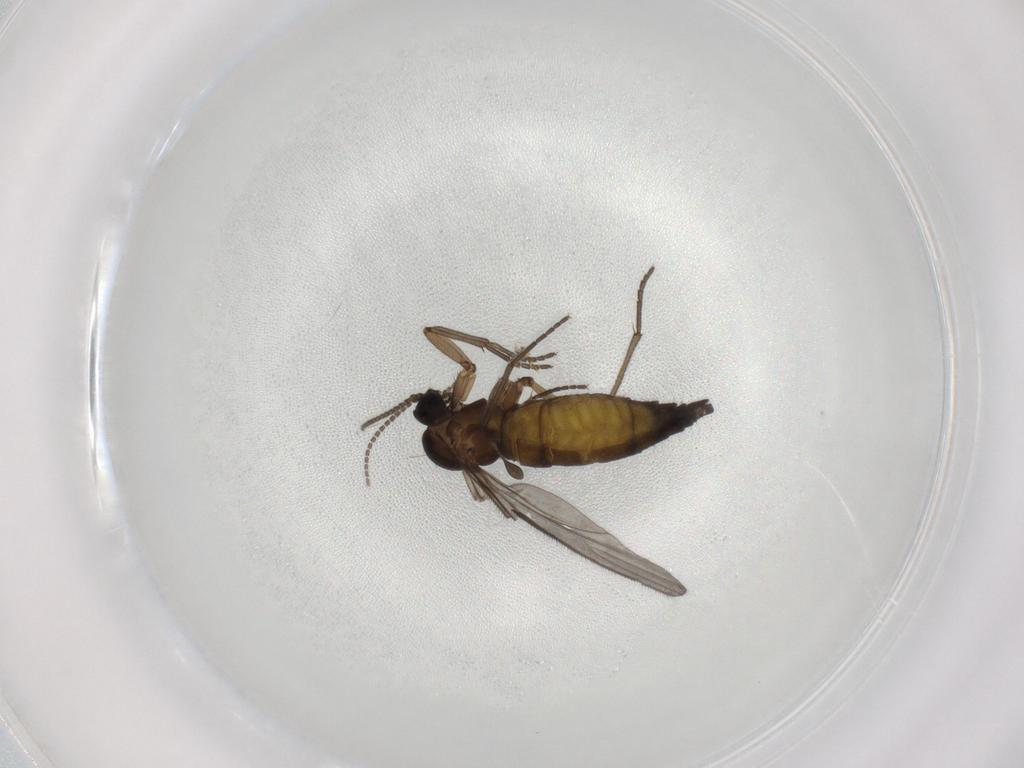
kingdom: Animalia
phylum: Arthropoda
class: Insecta
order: Diptera
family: Sciaridae
